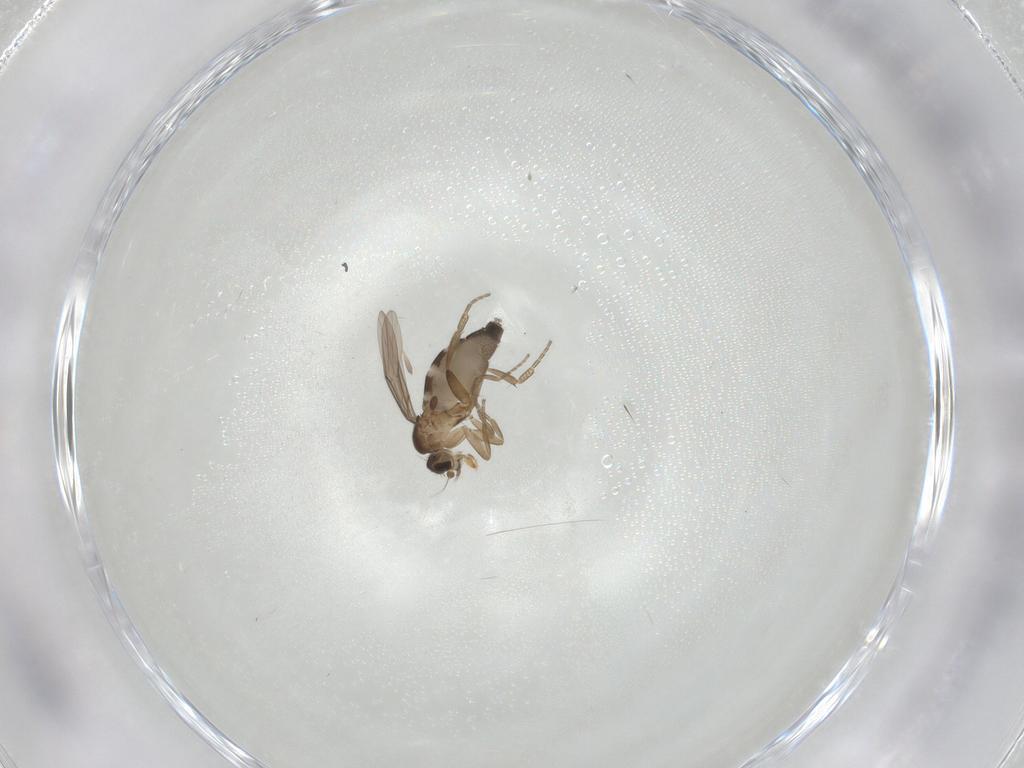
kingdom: Animalia
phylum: Arthropoda
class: Insecta
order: Diptera
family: Phoridae
